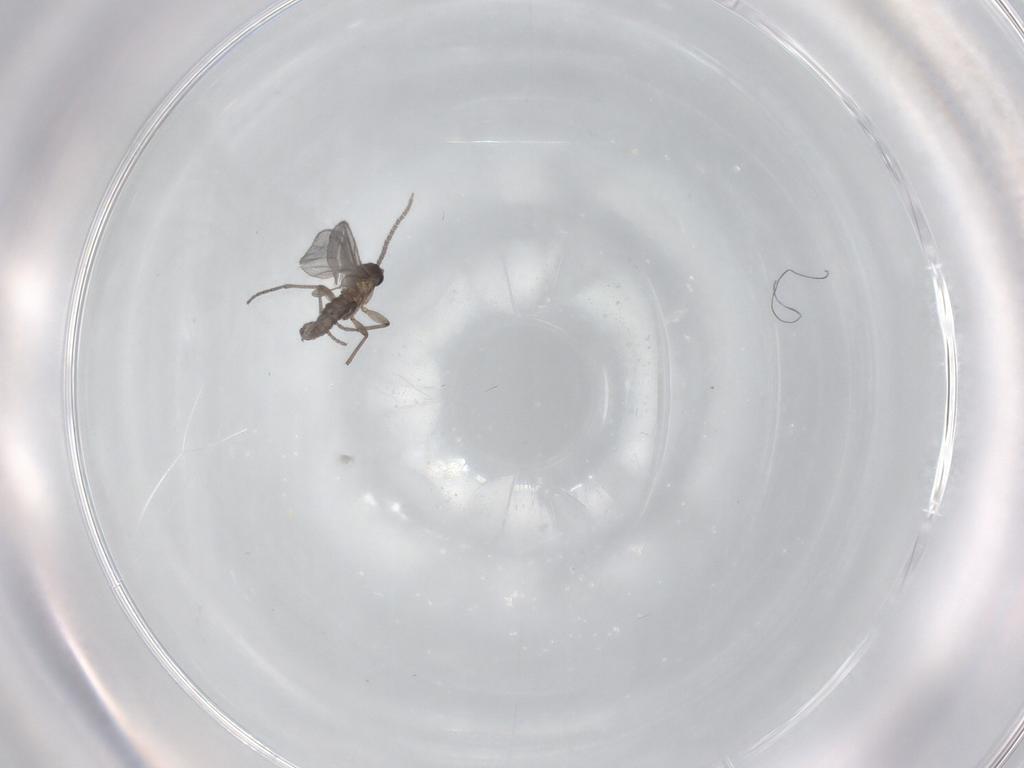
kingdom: Animalia
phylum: Arthropoda
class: Insecta
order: Diptera
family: Sciaridae
